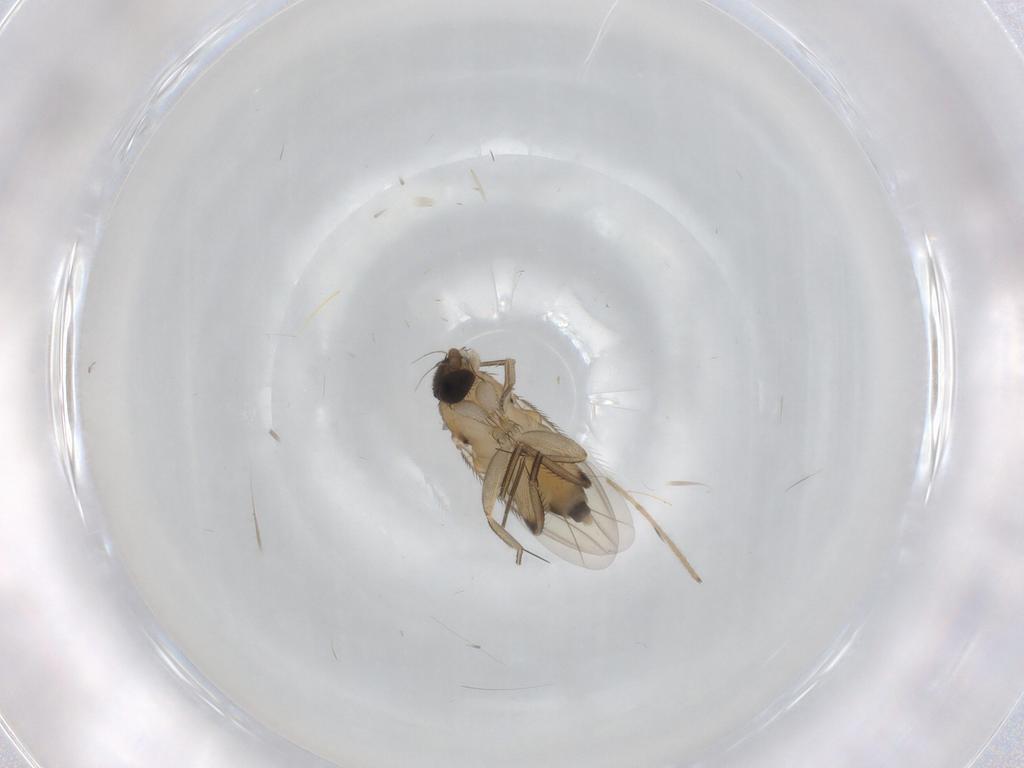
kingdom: Animalia
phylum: Arthropoda
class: Insecta
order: Diptera
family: Phoridae
